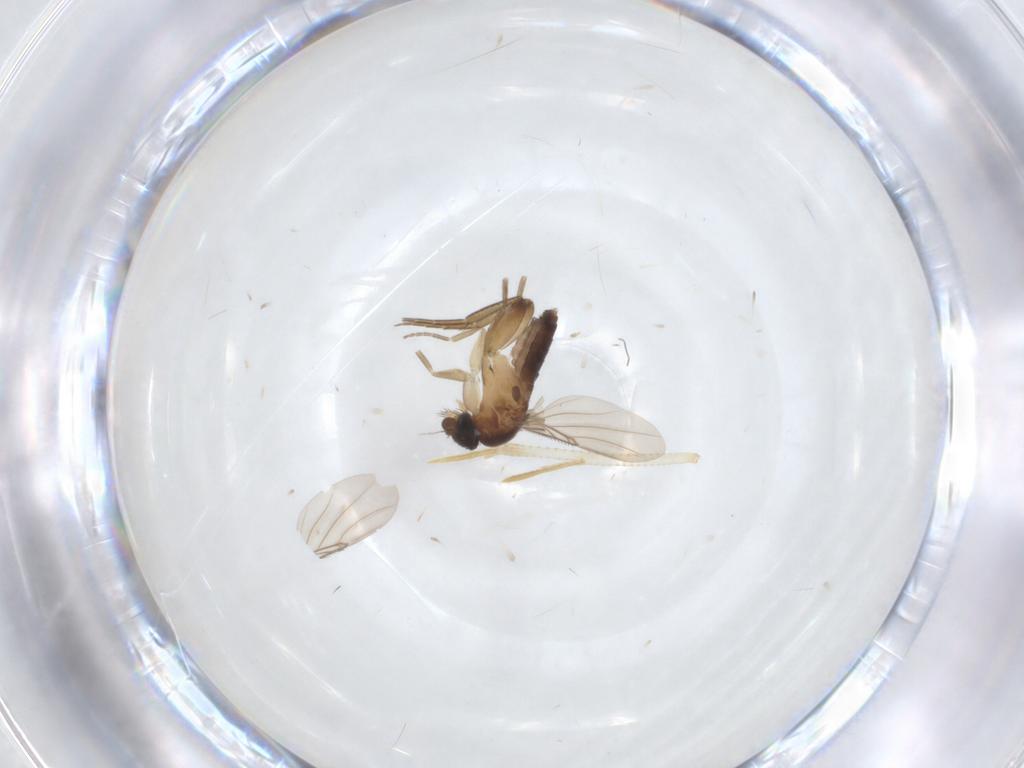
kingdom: Animalia
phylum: Arthropoda
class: Insecta
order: Diptera
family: Phoridae
